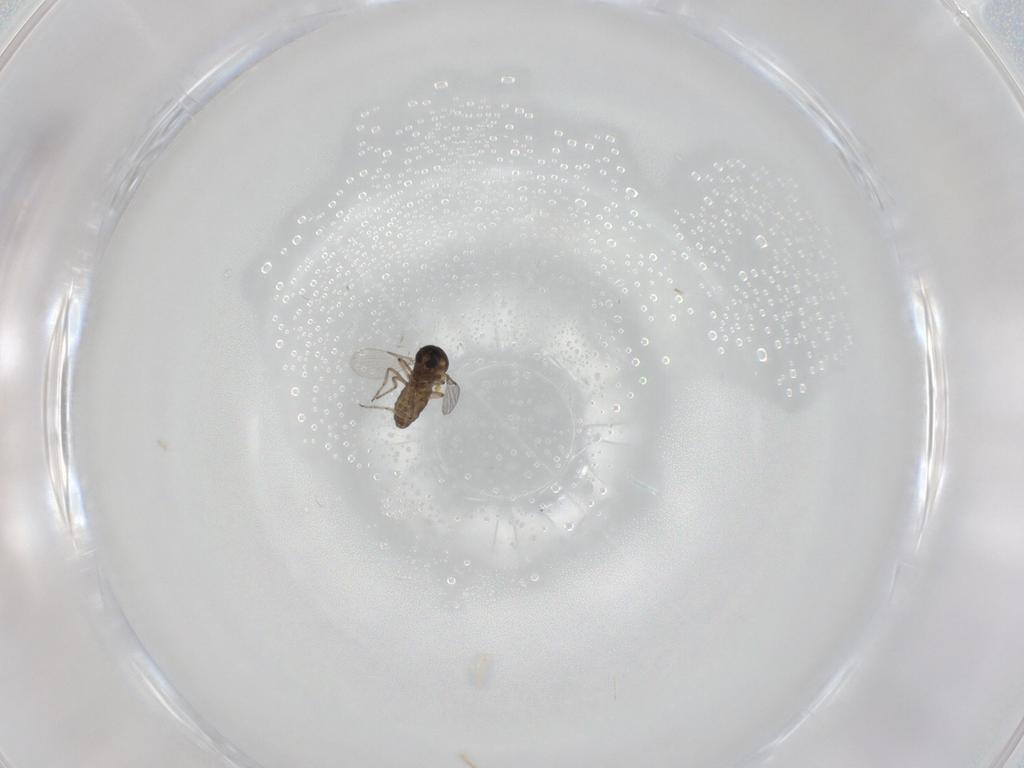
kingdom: Animalia
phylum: Arthropoda
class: Insecta
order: Diptera
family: Ceratopogonidae
